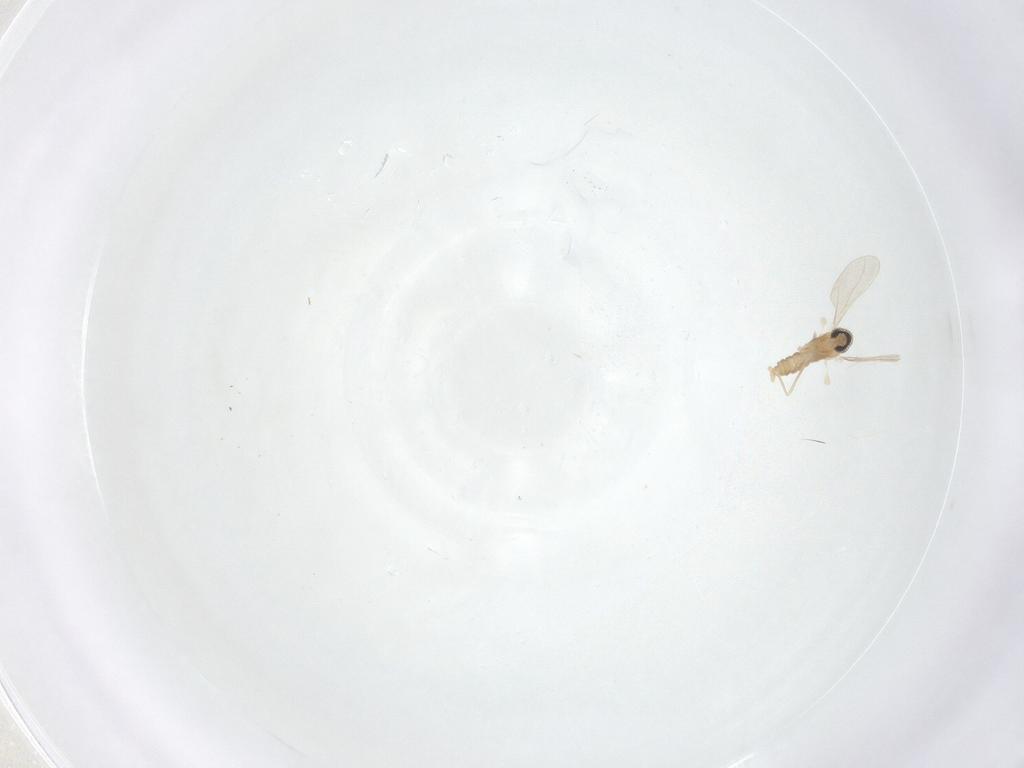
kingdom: Animalia
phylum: Arthropoda
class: Insecta
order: Diptera
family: Cecidomyiidae
